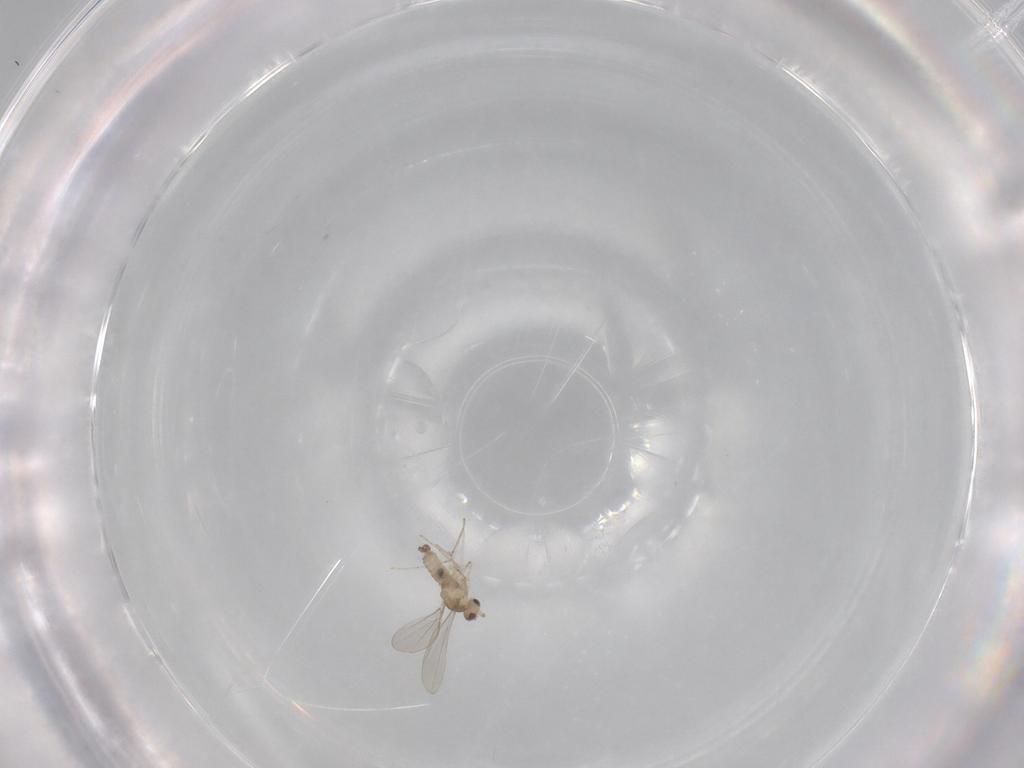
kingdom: Animalia
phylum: Arthropoda
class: Insecta
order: Diptera
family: Cecidomyiidae
